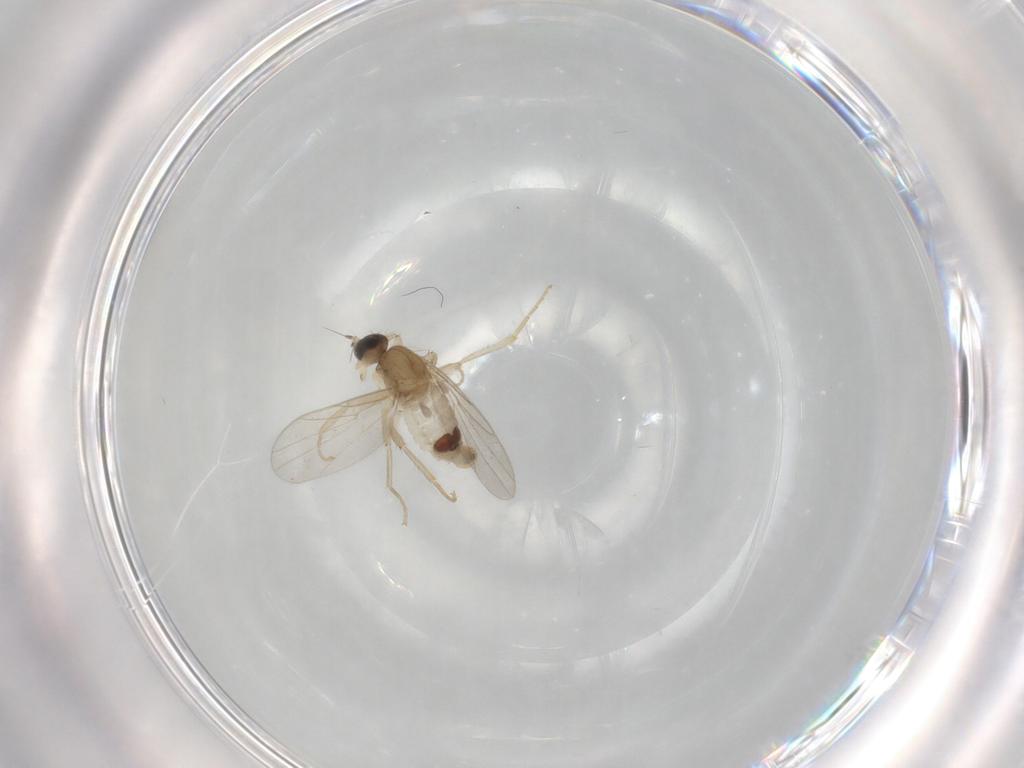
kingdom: Animalia
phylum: Arthropoda
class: Insecta
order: Diptera
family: Hybotidae
